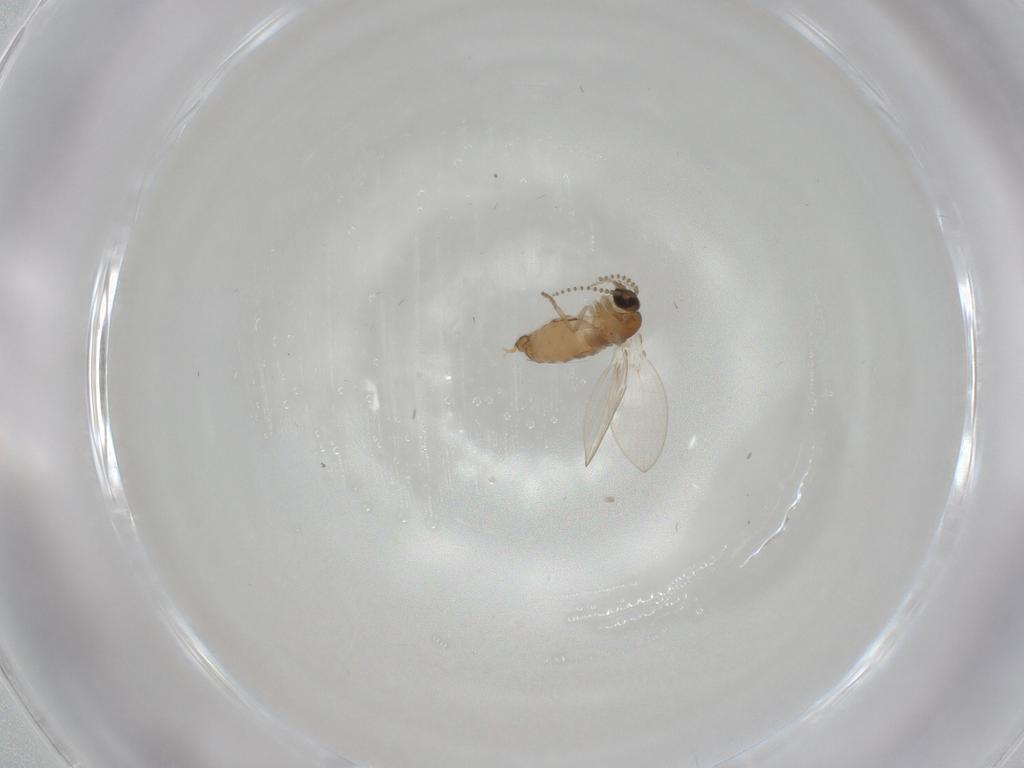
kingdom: Animalia
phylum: Arthropoda
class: Insecta
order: Diptera
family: Psychodidae
